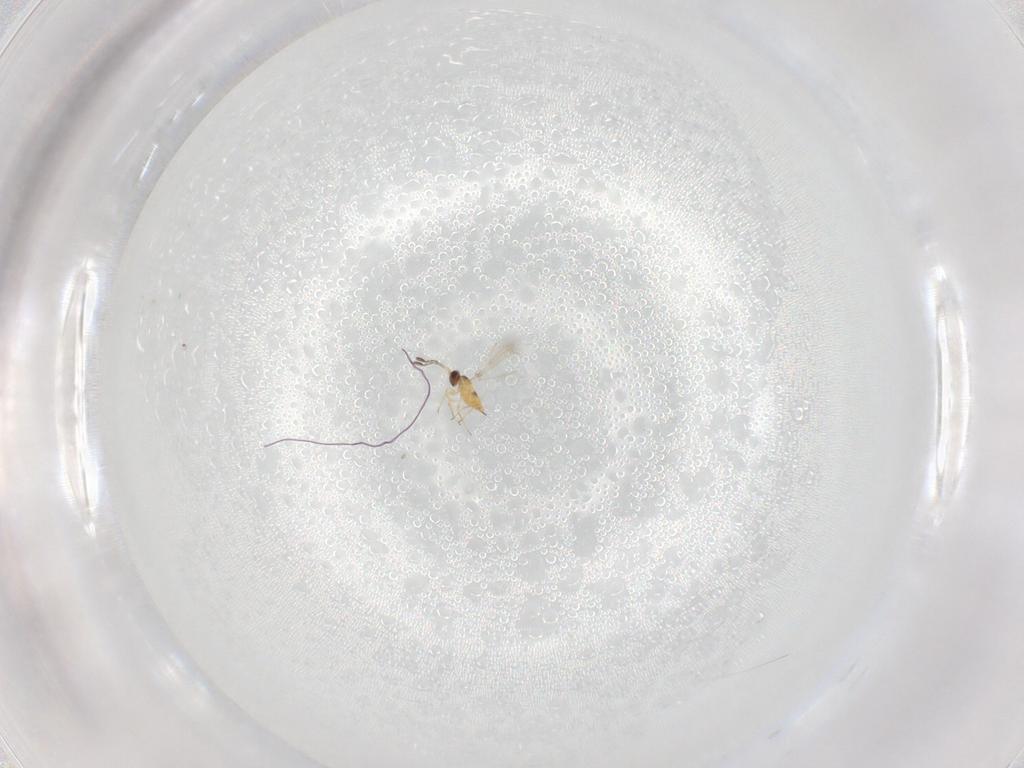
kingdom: Animalia
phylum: Arthropoda
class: Insecta
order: Hymenoptera
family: Mymaridae
